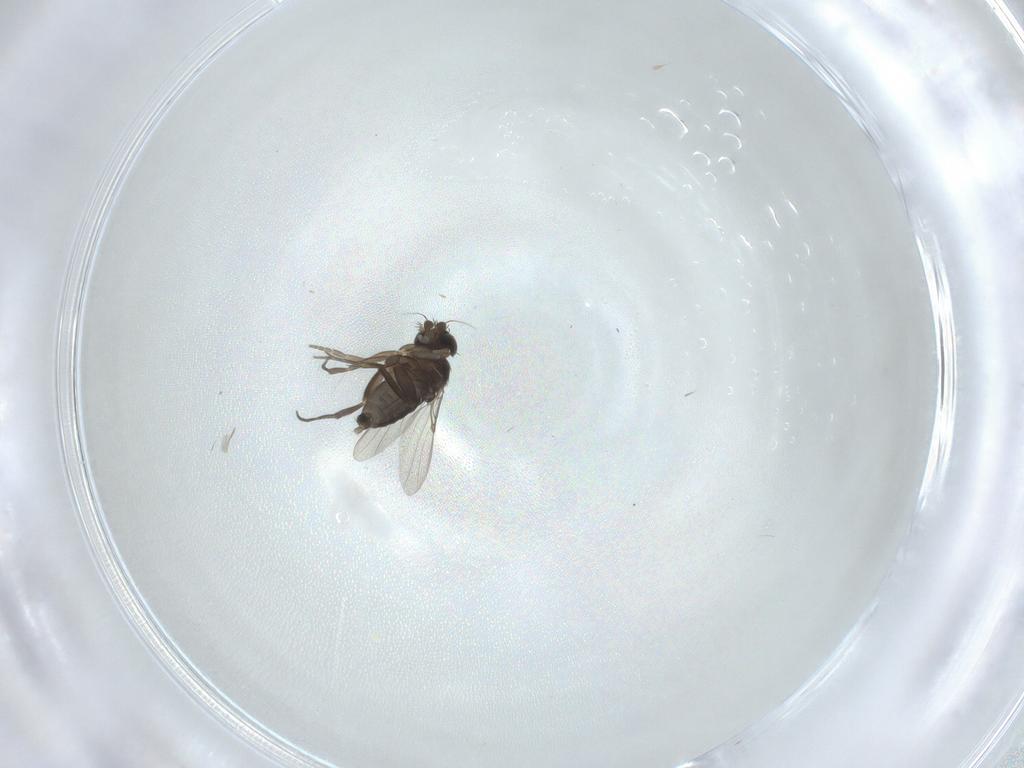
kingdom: Animalia
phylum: Arthropoda
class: Insecta
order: Diptera
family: Phoridae
